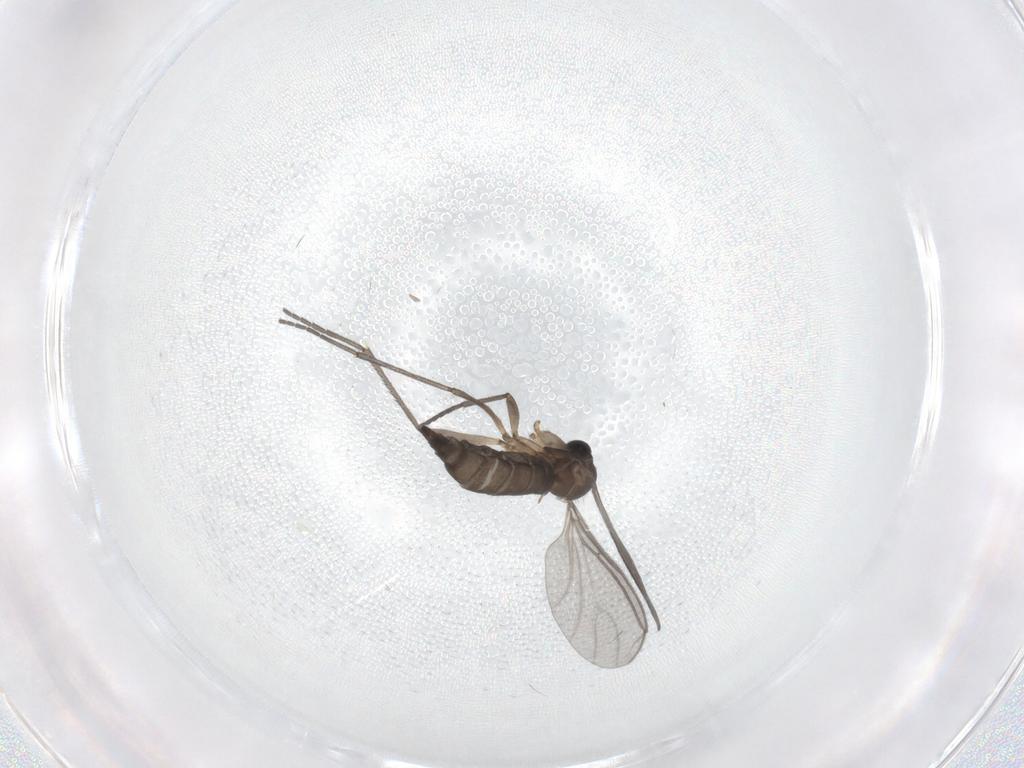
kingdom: Animalia
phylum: Arthropoda
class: Insecta
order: Diptera
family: Sciaridae
